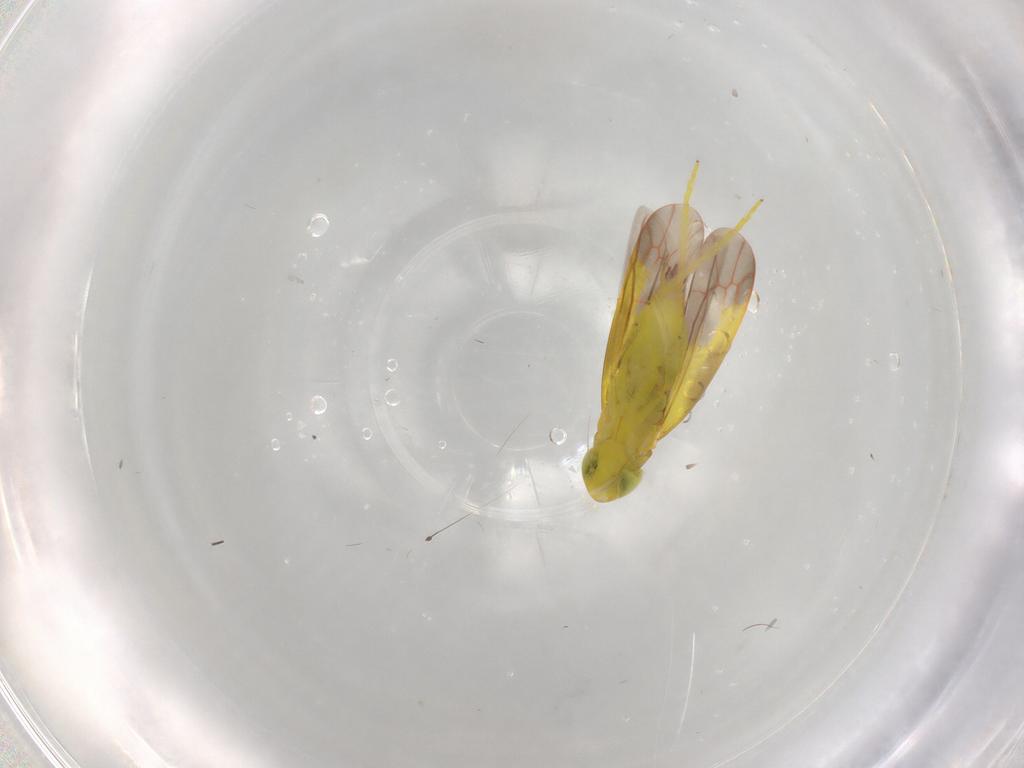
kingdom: Animalia
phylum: Arthropoda
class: Insecta
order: Hemiptera
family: Cicadellidae
